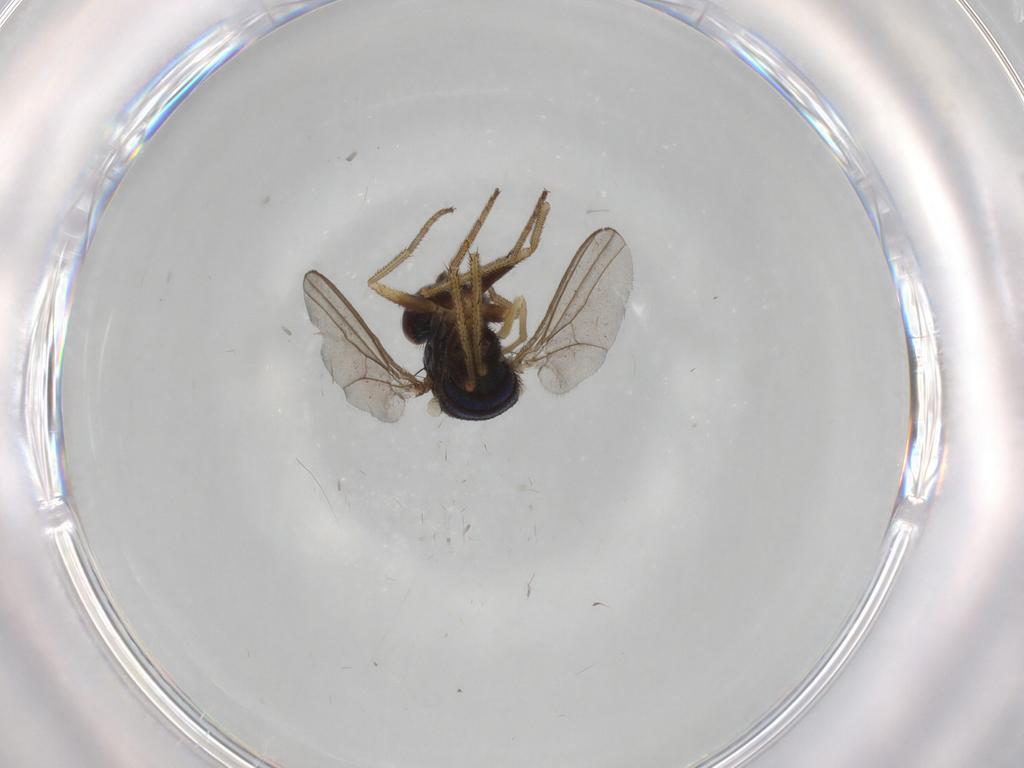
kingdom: Animalia
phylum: Arthropoda
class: Insecta
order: Diptera
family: Dolichopodidae
